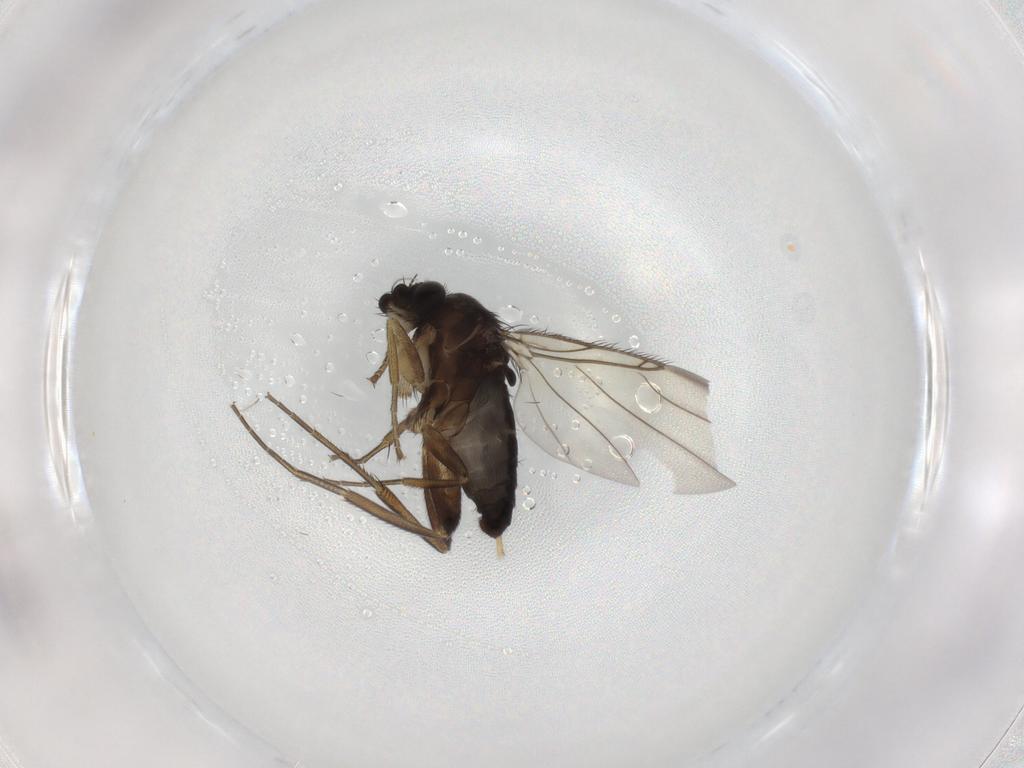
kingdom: Animalia
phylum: Arthropoda
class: Insecta
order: Diptera
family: Phoridae
